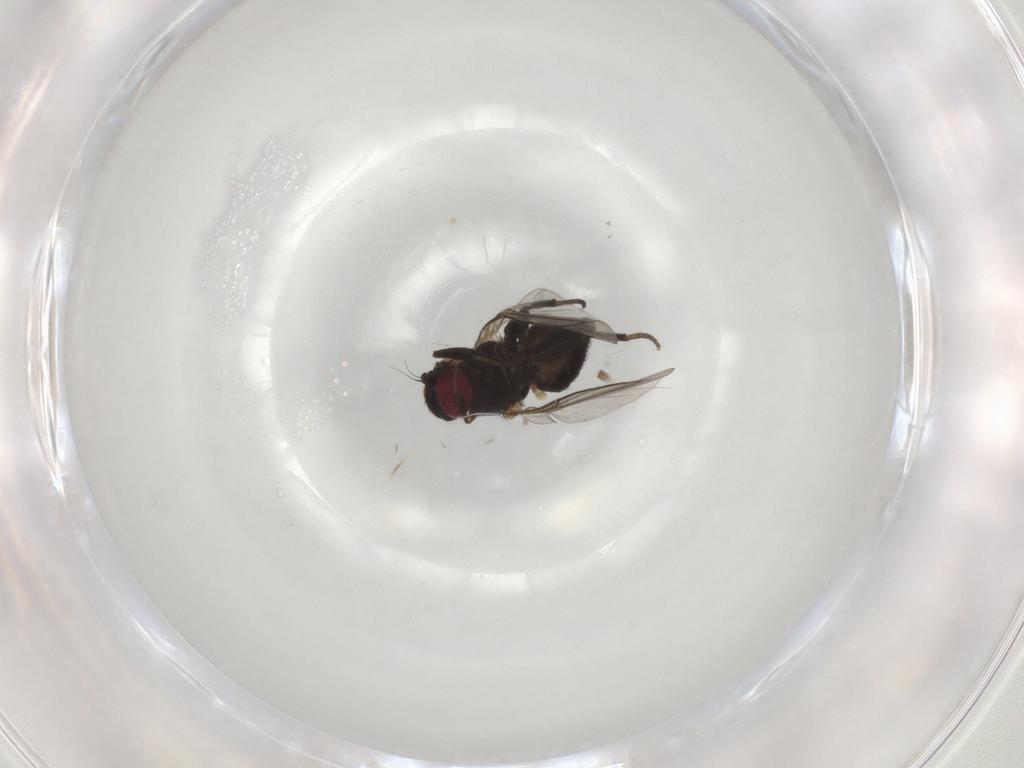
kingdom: Animalia
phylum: Arthropoda
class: Insecta
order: Diptera
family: Agromyzidae
